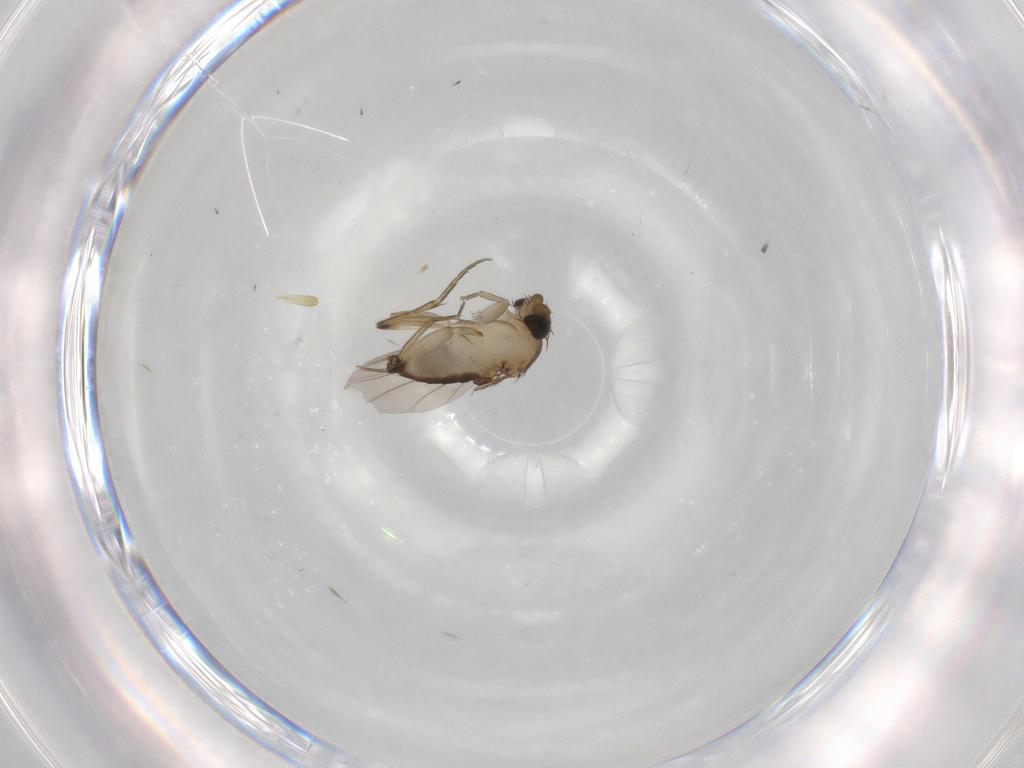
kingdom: Animalia
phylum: Arthropoda
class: Insecta
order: Diptera
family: Phoridae
